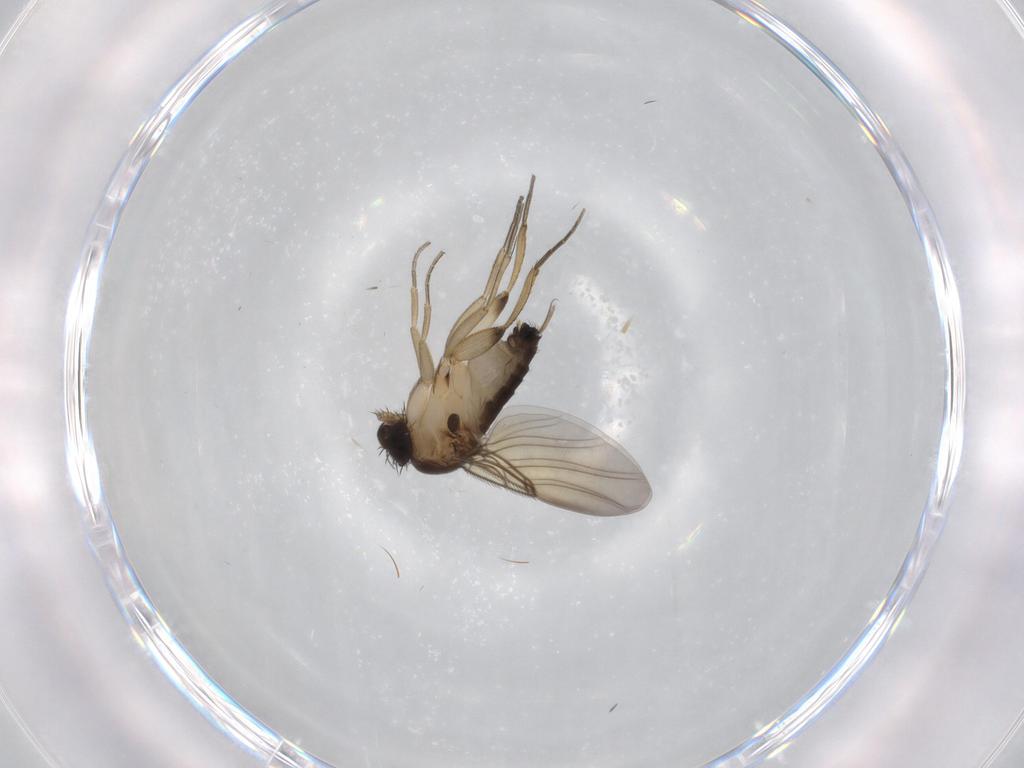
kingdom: Animalia
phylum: Arthropoda
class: Insecta
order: Diptera
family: Phoridae
